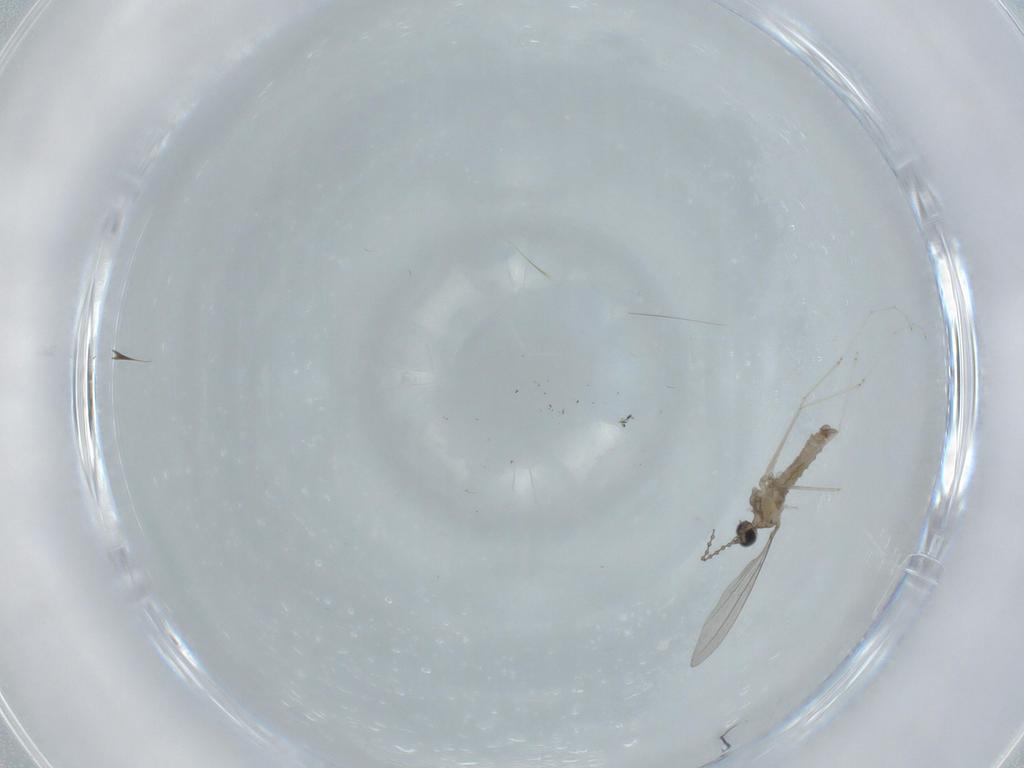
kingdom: Animalia
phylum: Arthropoda
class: Insecta
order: Diptera
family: Cecidomyiidae
